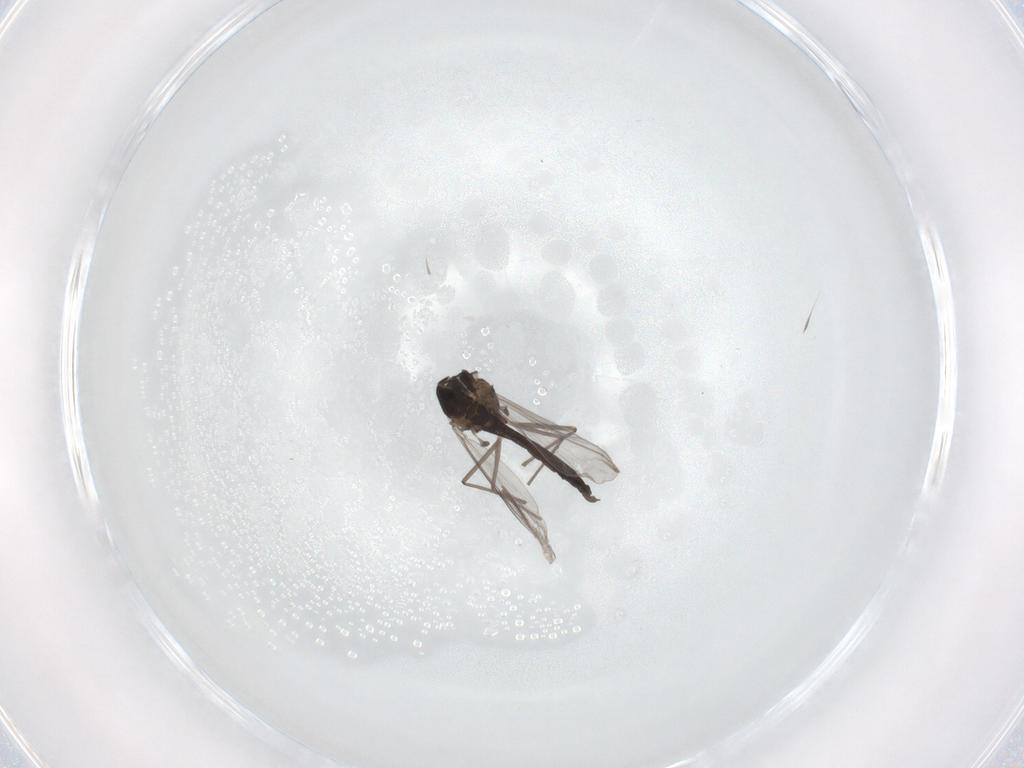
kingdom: Animalia
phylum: Arthropoda
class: Insecta
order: Diptera
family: Chironomidae
